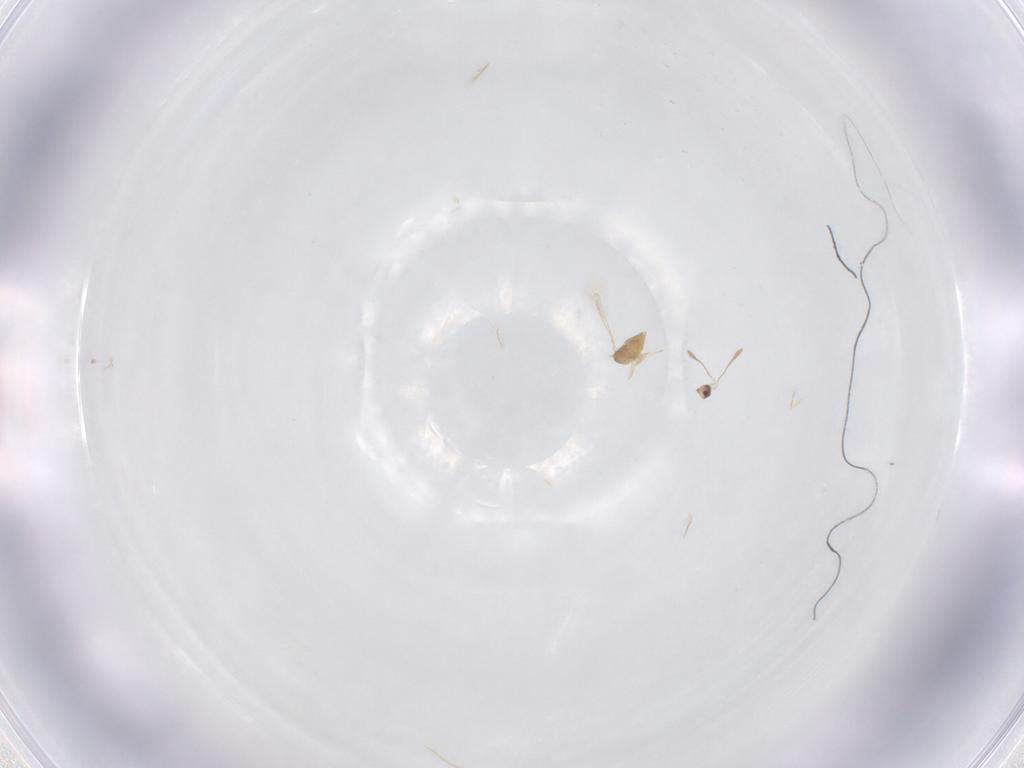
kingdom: Animalia
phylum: Arthropoda
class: Insecta
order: Hymenoptera
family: Mymaridae
